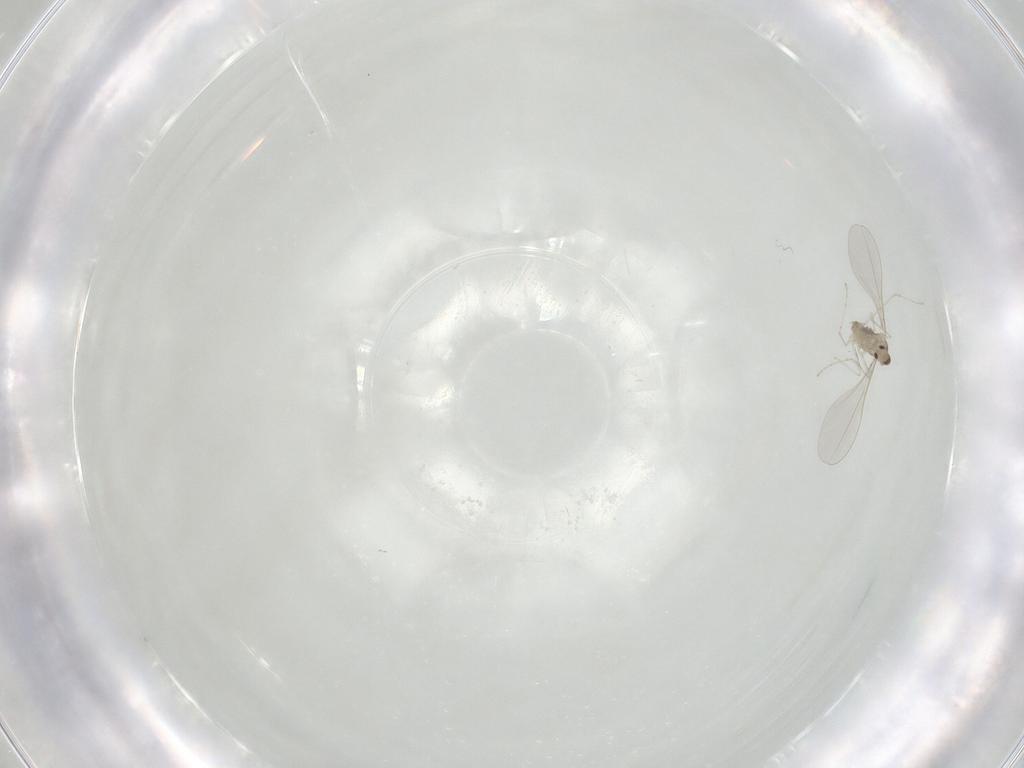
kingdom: Animalia
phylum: Arthropoda
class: Insecta
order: Diptera
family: Cecidomyiidae
